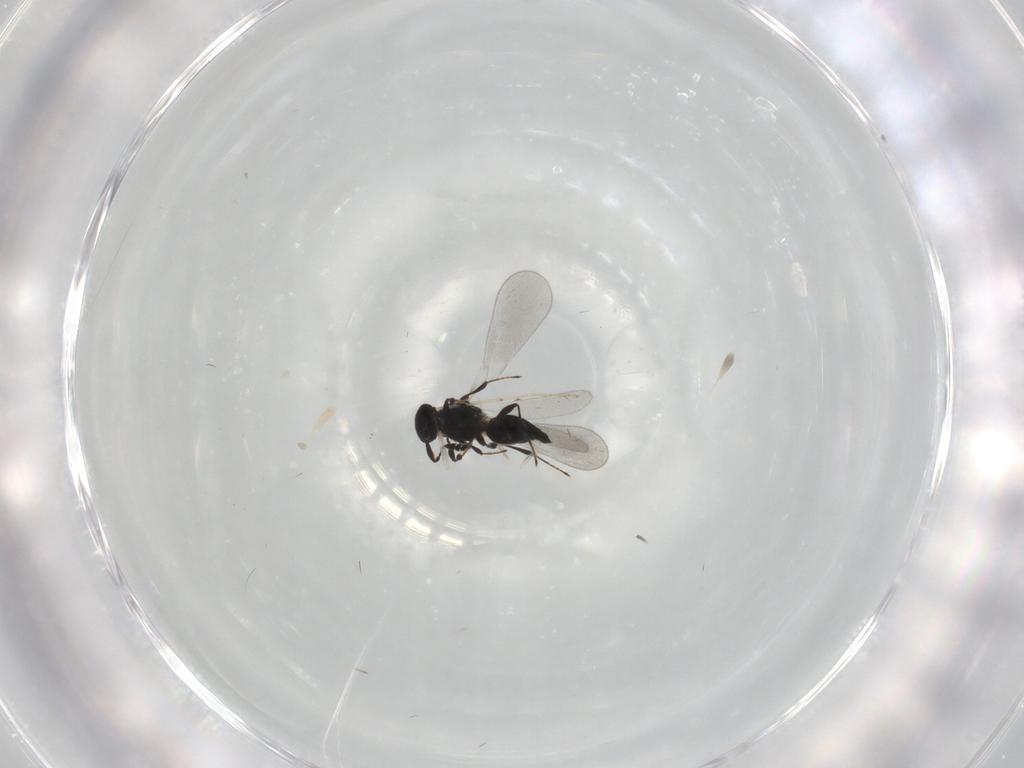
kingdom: Animalia
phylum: Arthropoda
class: Insecta
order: Hymenoptera
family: Platygastridae
